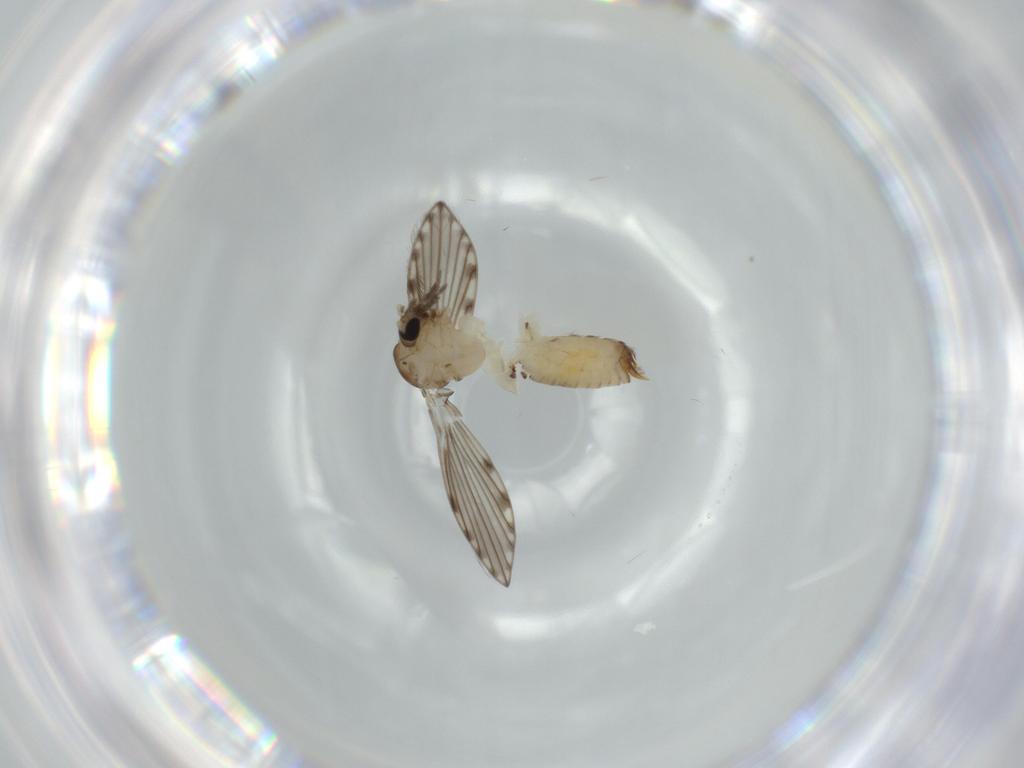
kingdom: Animalia
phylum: Arthropoda
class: Insecta
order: Diptera
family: Psychodidae
